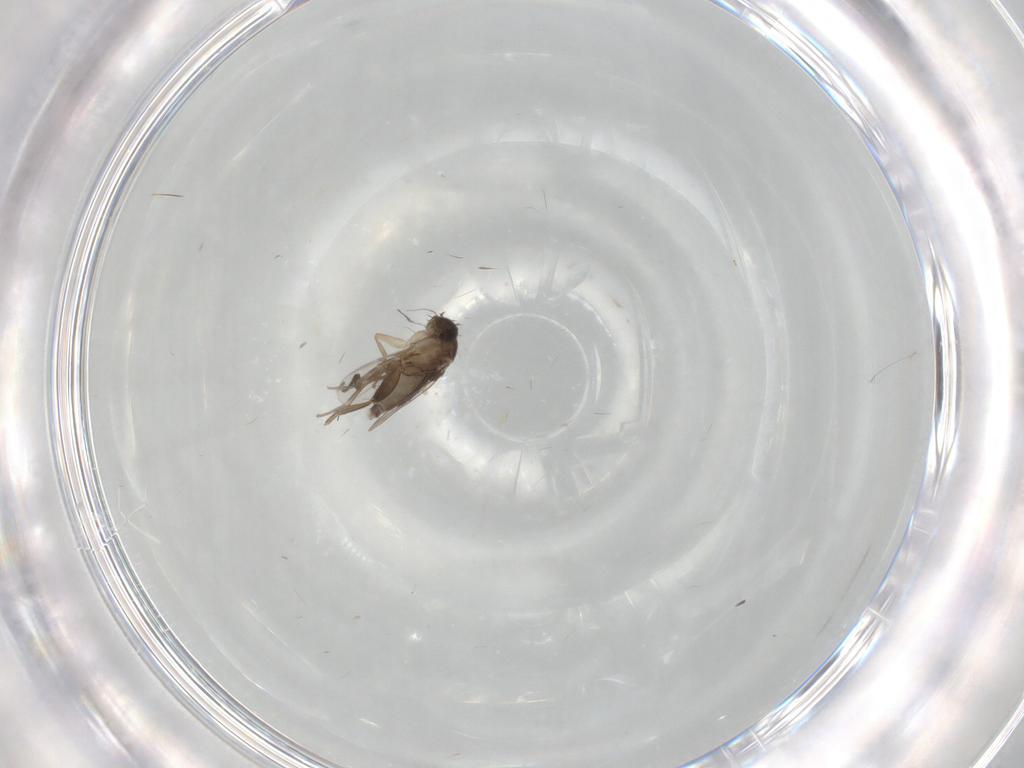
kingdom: Animalia
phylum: Arthropoda
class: Insecta
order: Diptera
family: Phoridae
